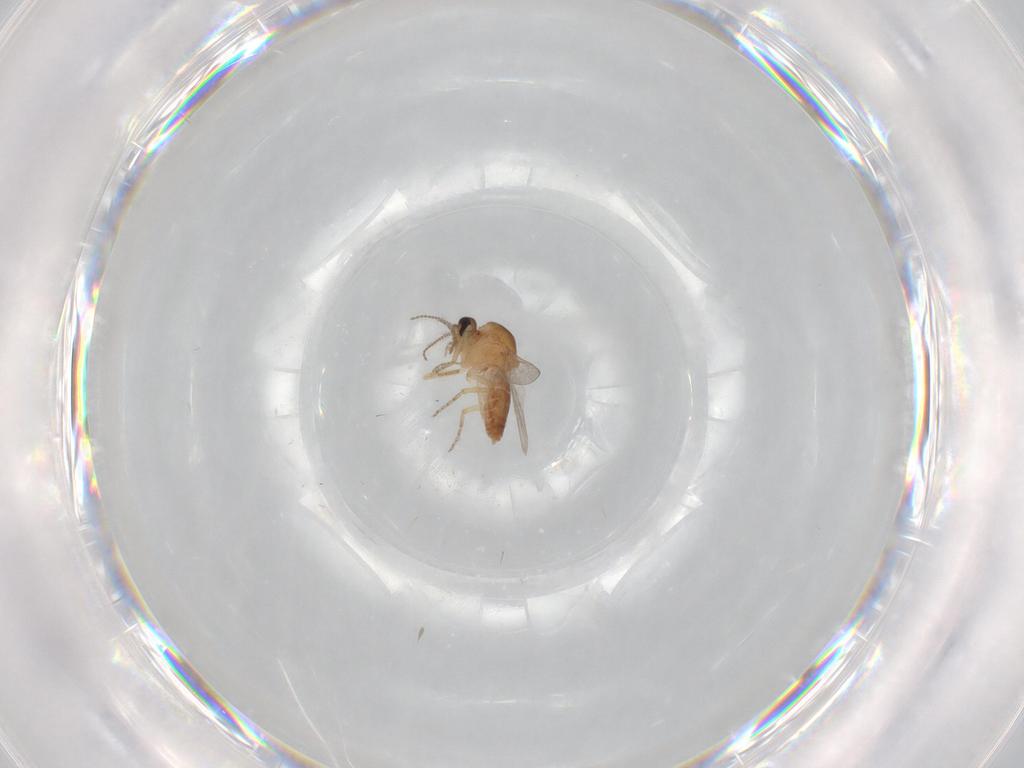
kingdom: Animalia
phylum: Arthropoda
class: Insecta
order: Diptera
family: Ceratopogonidae
